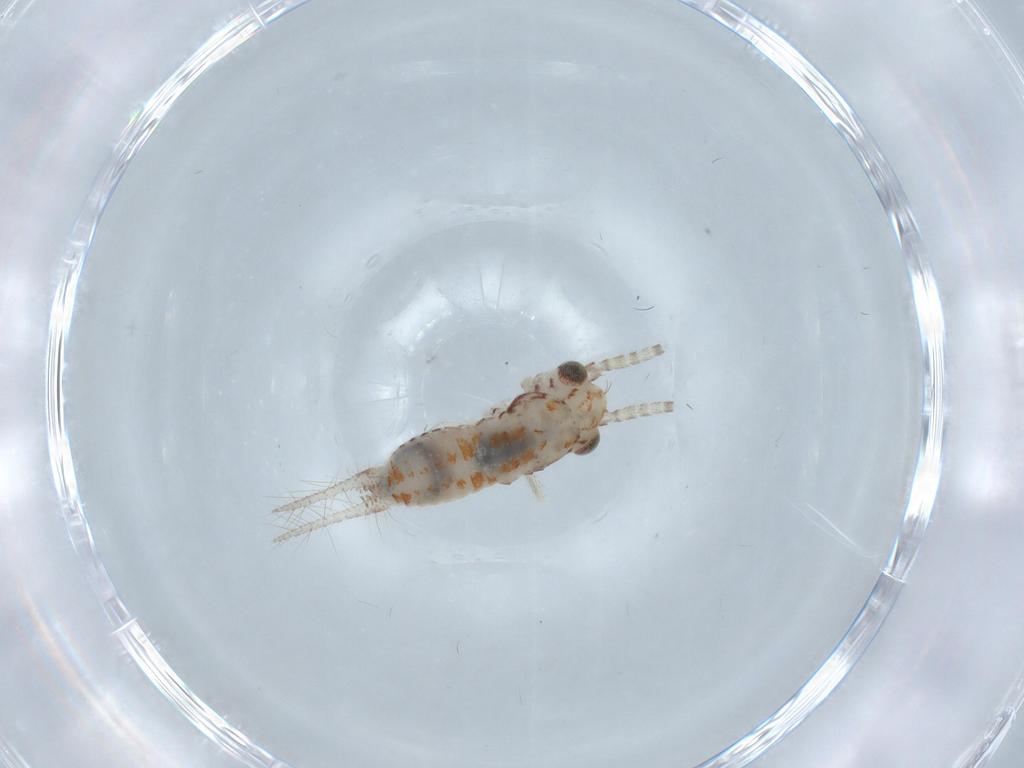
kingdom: Animalia
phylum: Arthropoda
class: Insecta
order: Orthoptera
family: Trigonidiidae
